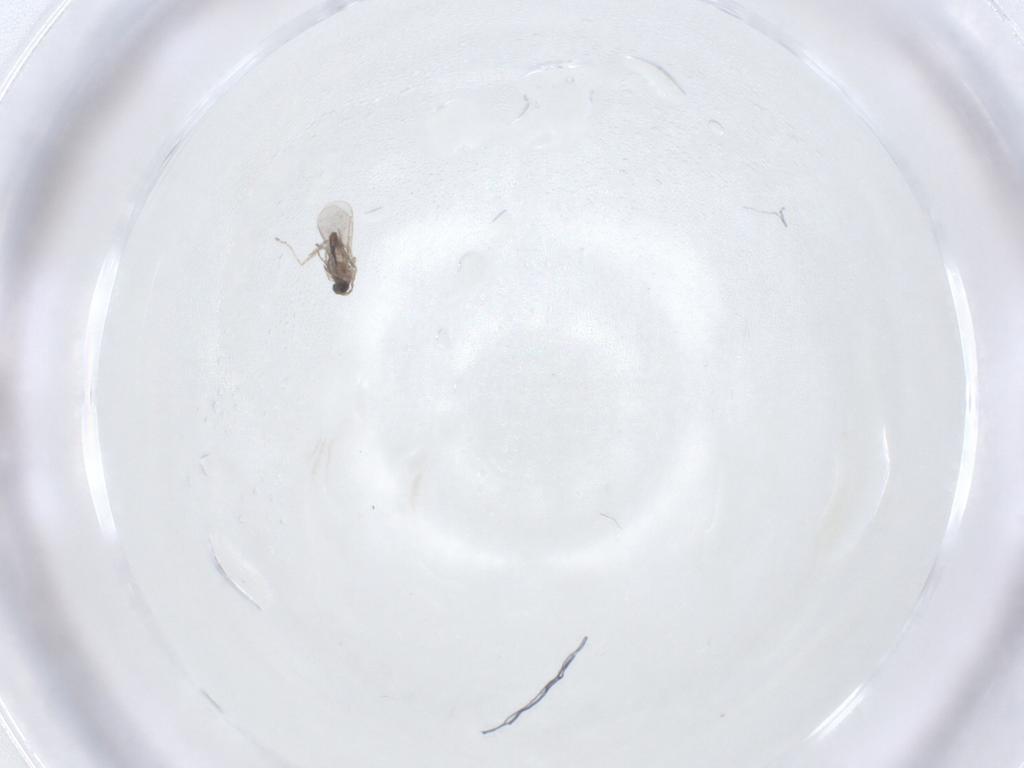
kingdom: Animalia
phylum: Arthropoda
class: Insecta
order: Diptera
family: Cecidomyiidae
